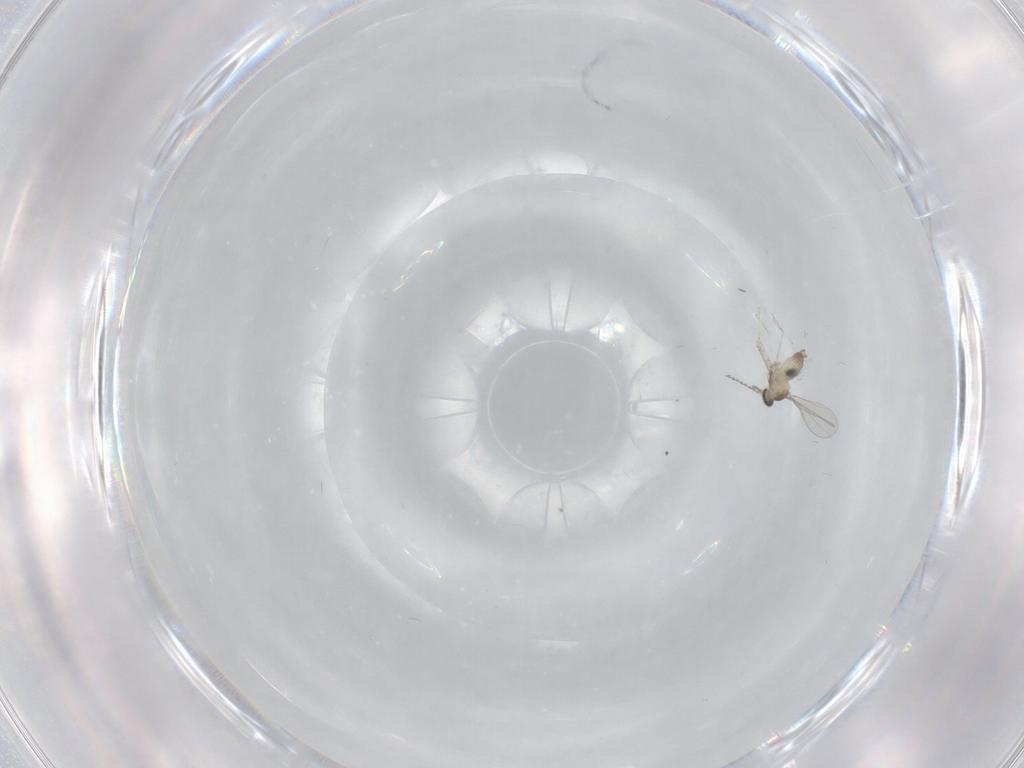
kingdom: Animalia
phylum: Arthropoda
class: Insecta
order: Diptera
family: Cecidomyiidae
